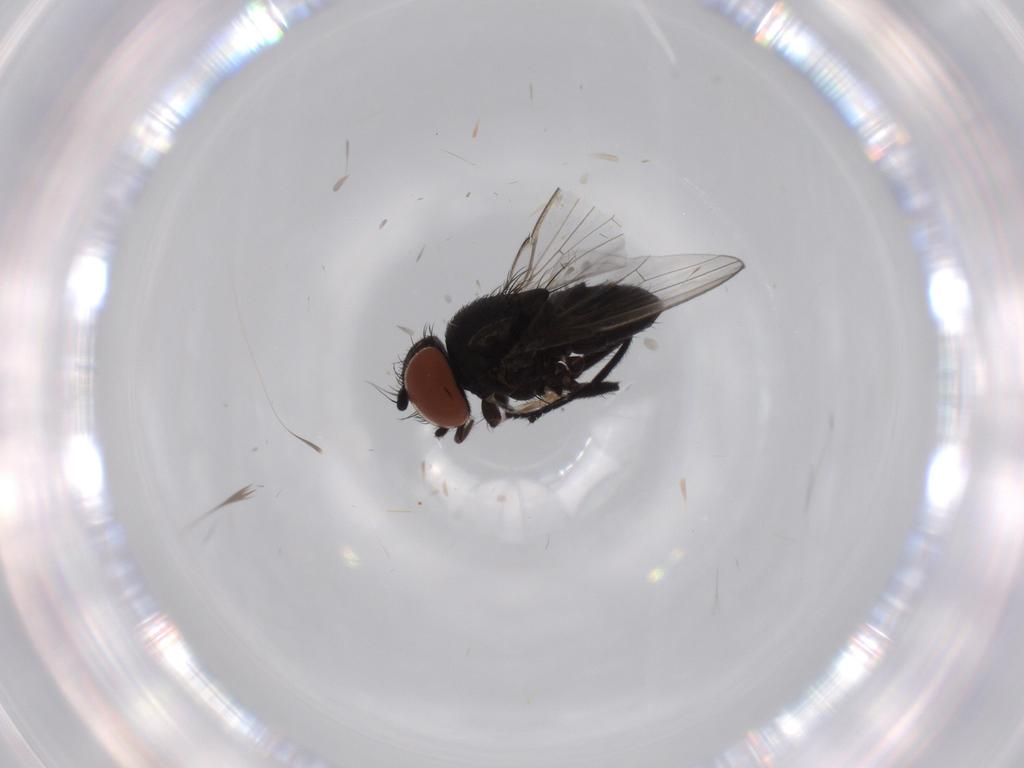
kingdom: Animalia
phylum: Arthropoda
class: Insecta
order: Diptera
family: Milichiidae
